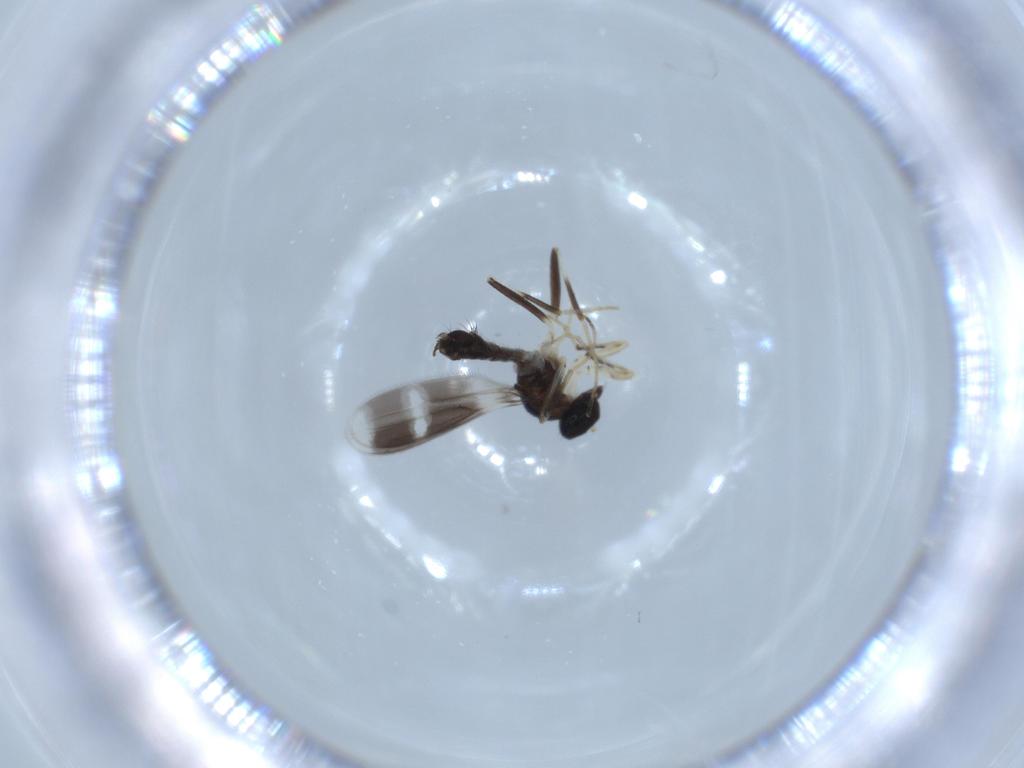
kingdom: Animalia
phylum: Arthropoda
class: Insecta
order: Diptera
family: Hybotidae
